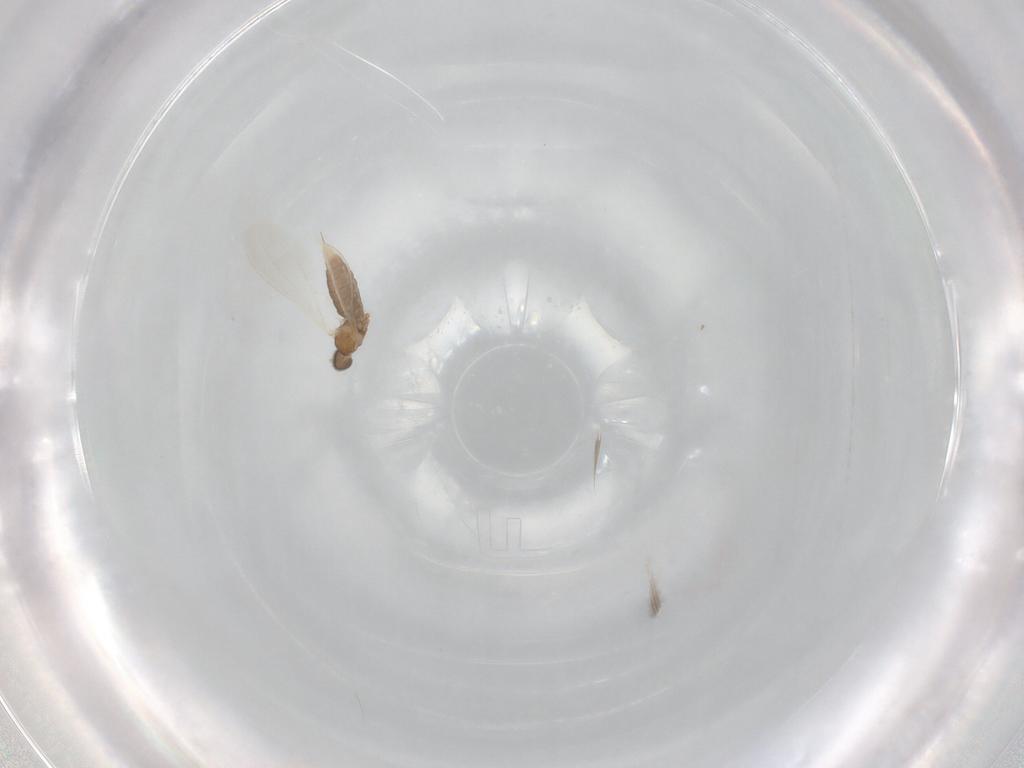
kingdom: Animalia
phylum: Arthropoda
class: Insecta
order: Diptera
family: Cecidomyiidae
